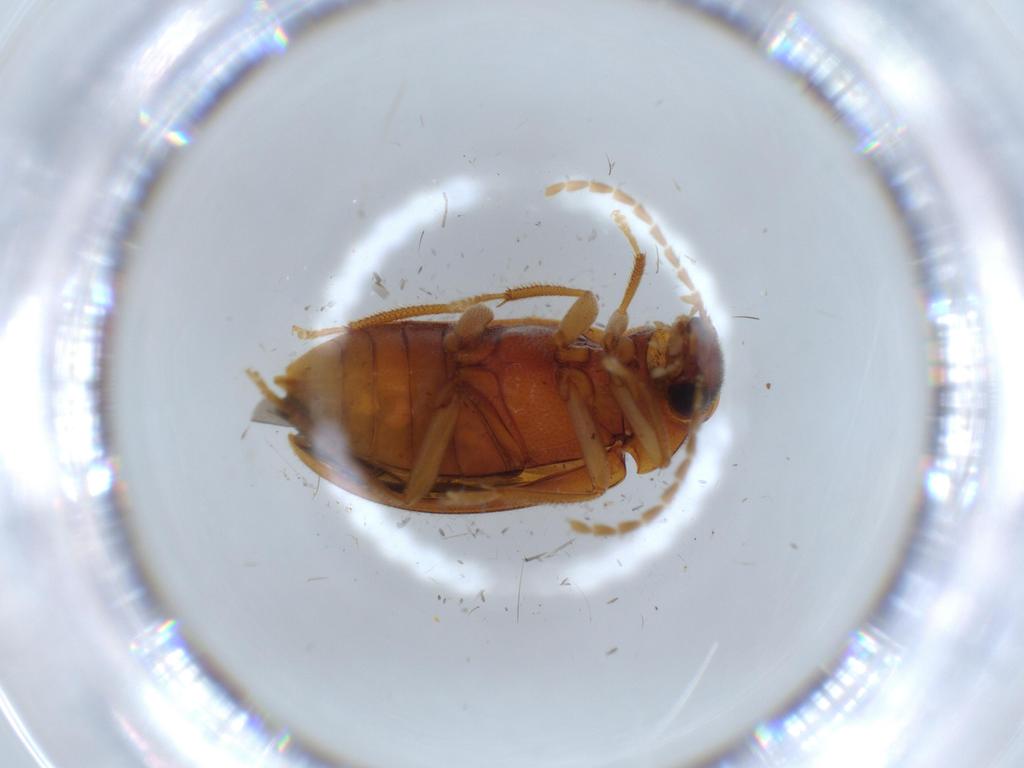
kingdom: Animalia
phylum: Arthropoda
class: Insecta
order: Coleoptera
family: Ptilodactylidae
